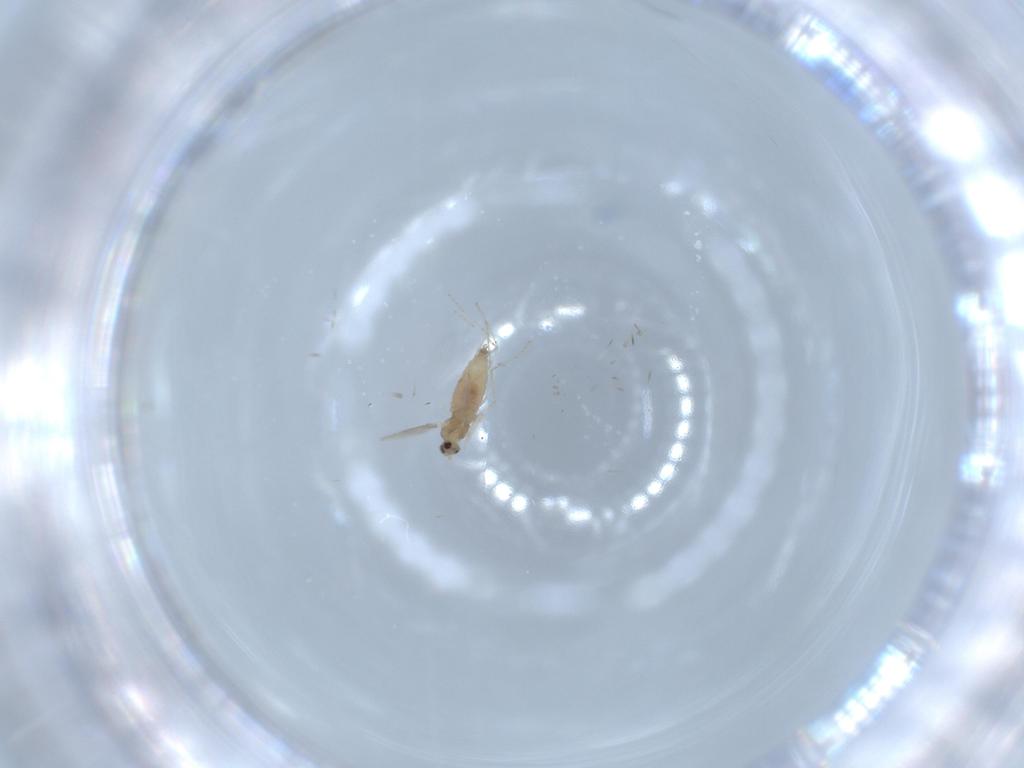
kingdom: Animalia
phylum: Arthropoda
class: Insecta
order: Diptera
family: Cecidomyiidae
